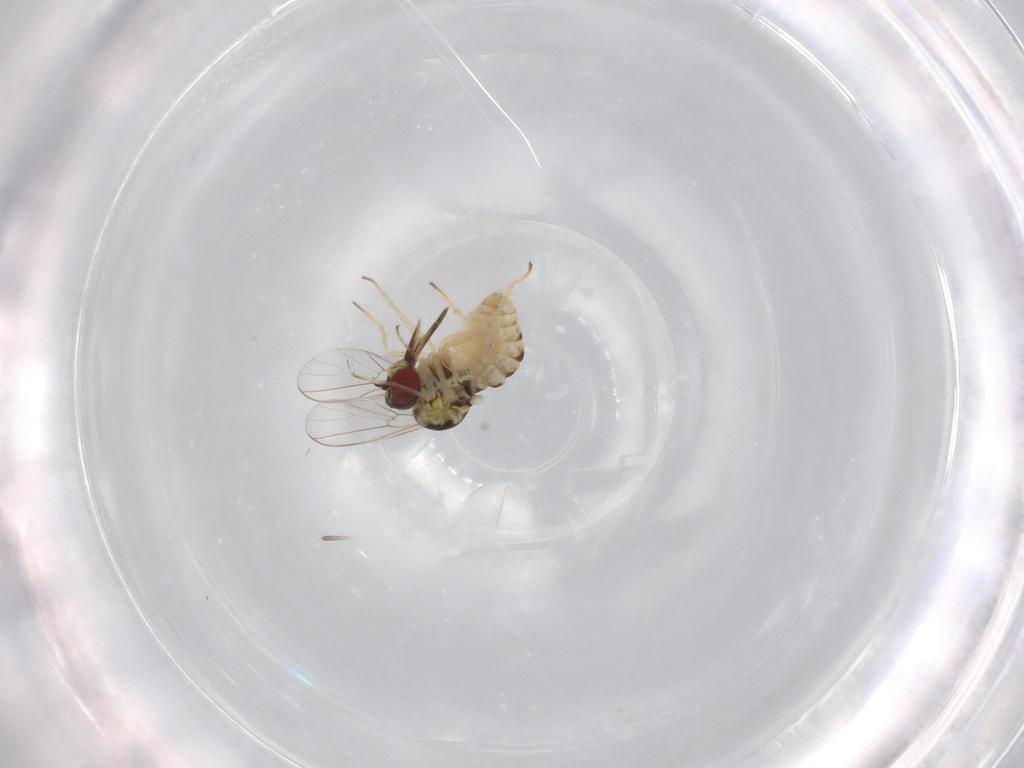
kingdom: Animalia
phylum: Arthropoda
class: Insecta
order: Diptera
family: Bombyliidae
